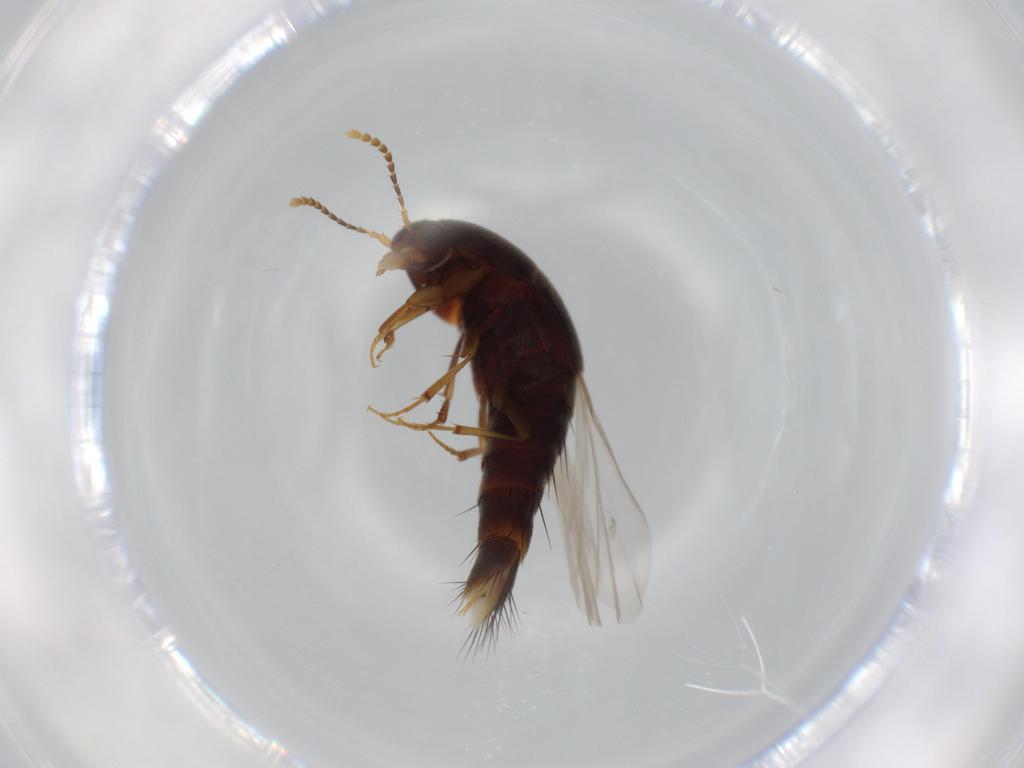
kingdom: Animalia
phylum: Arthropoda
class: Insecta
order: Coleoptera
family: Staphylinidae
